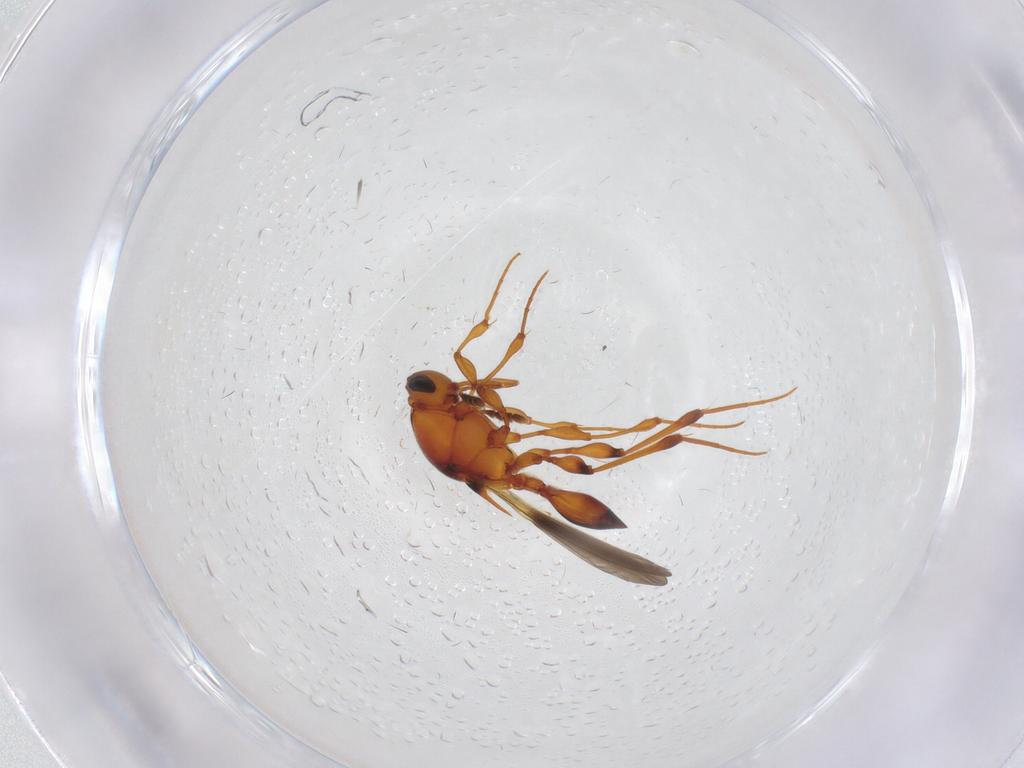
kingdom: Animalia
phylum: Arthropoda
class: Insecta
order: Hymenoptera
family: Platygastridae
